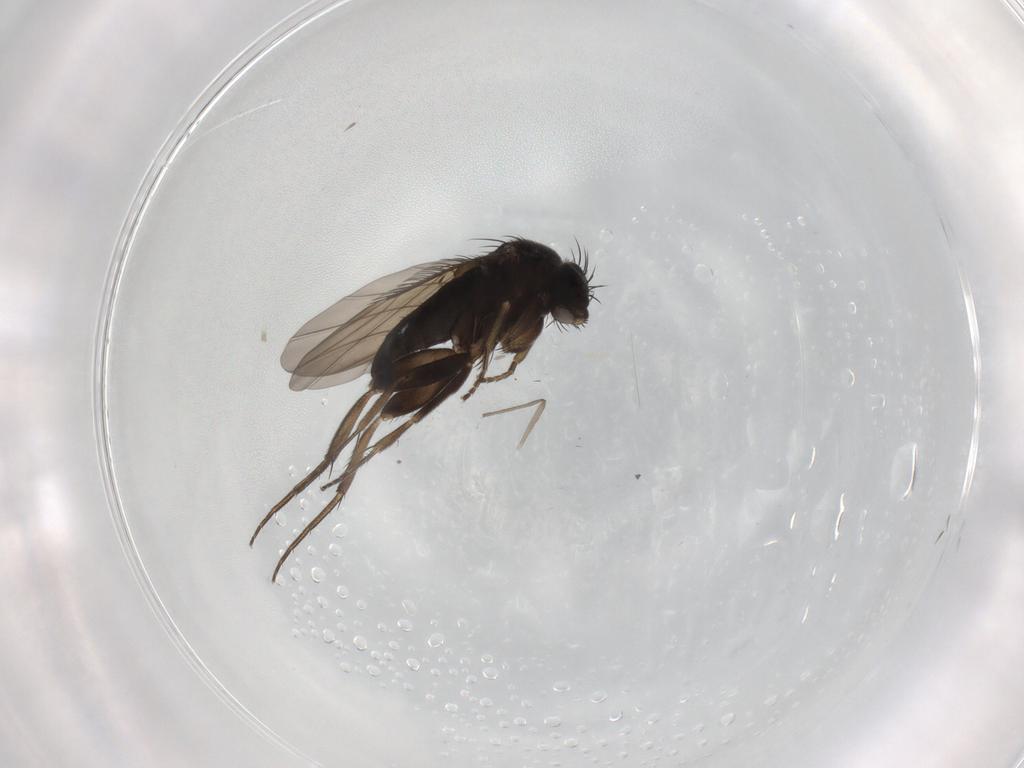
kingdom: Animalia
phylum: Arthropoda
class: Insecta
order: Diptera
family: Phoridae
